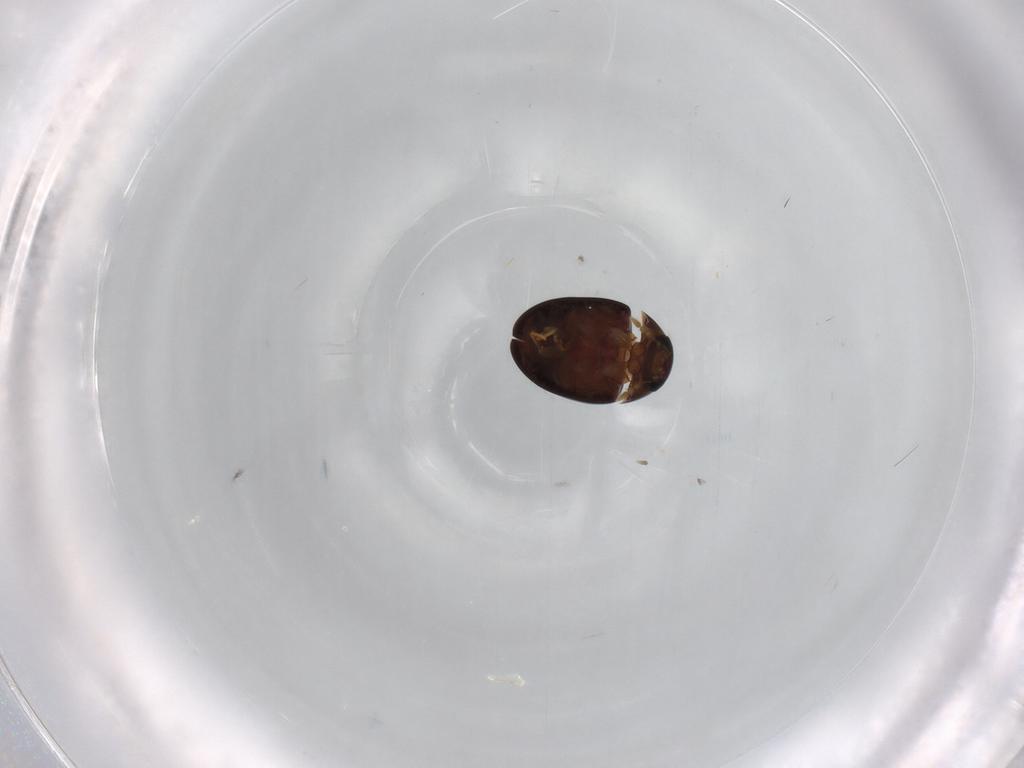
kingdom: Animalia
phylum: Arthropoda
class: Insecta
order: Coleoptera
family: Phalacridae
